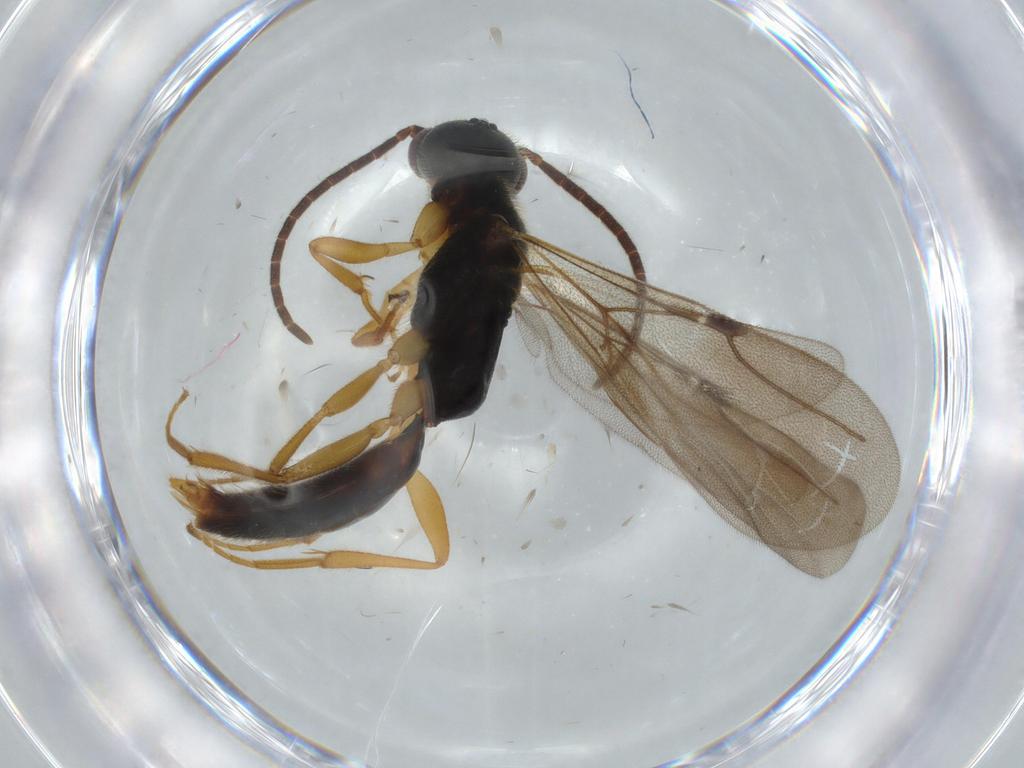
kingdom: Animalia
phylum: Arthropoda
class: Insecta
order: Hymenoptera
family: Bethylidae
